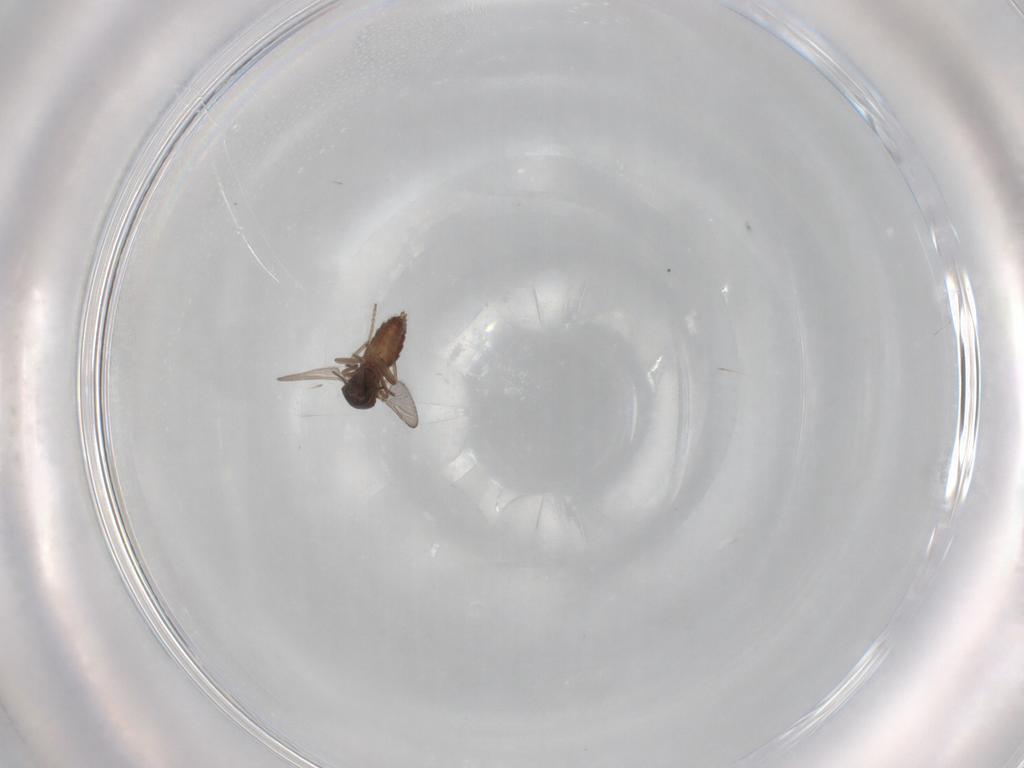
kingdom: Animalia
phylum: Arthropoda
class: Insecta
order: Diptera
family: Ceratopogonidae
